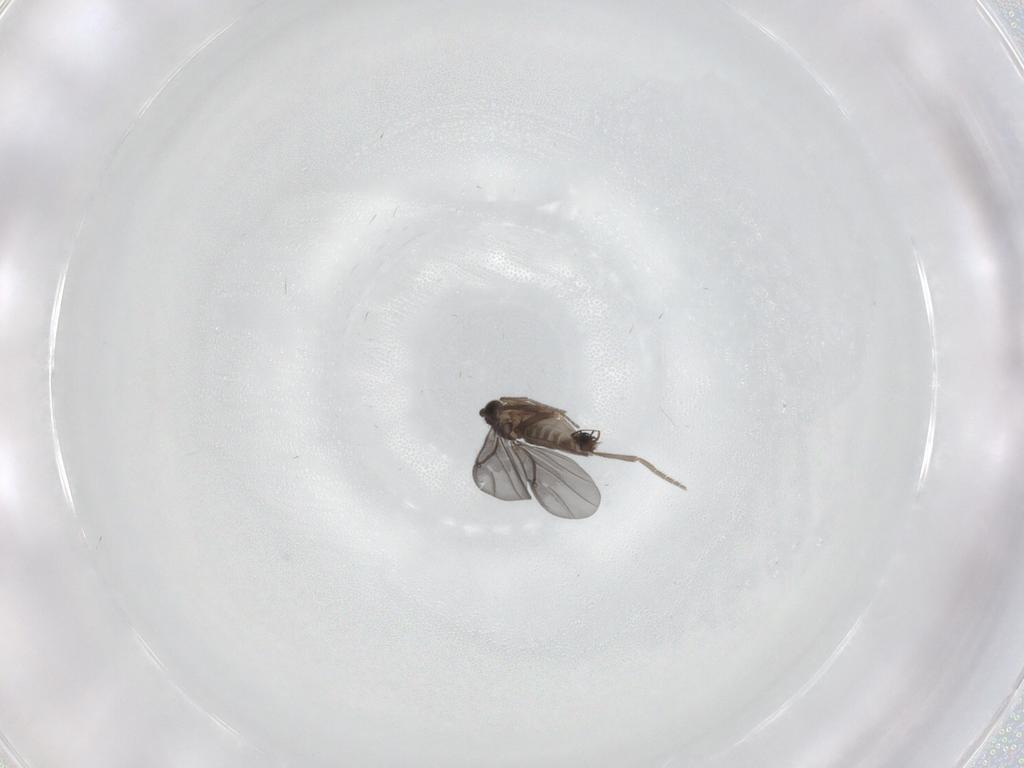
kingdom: Animalia
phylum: Arthropoda
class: Insecta
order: Diptera
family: Phoridae
